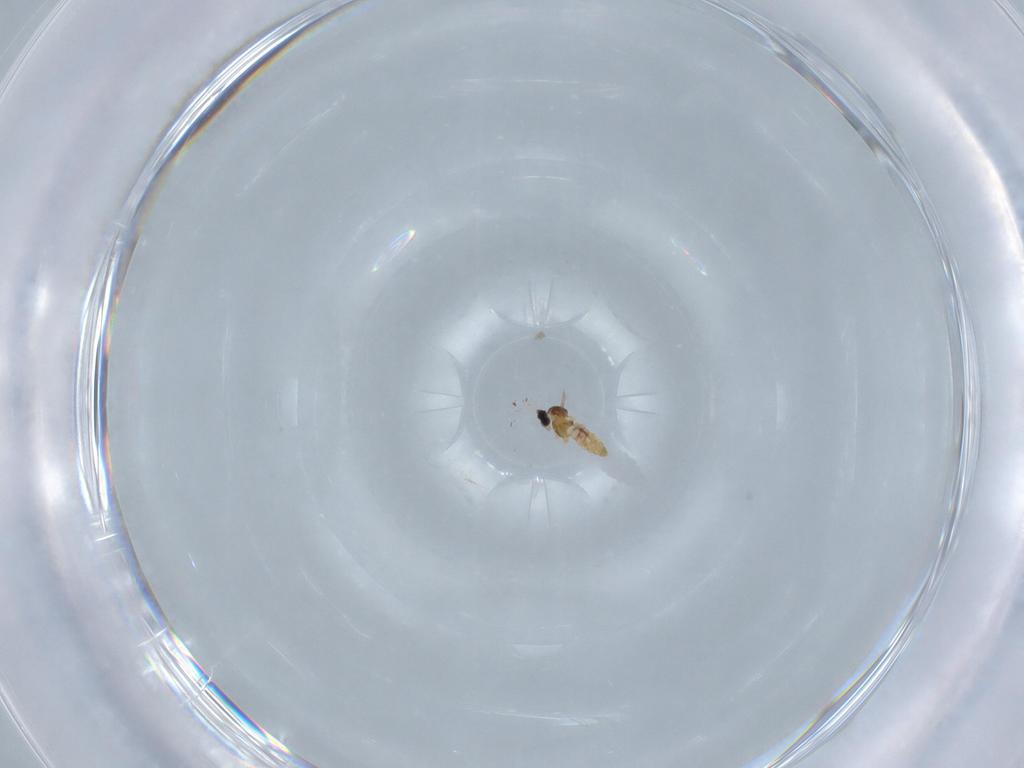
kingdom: Animalia
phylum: Arthropoda
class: Insecta
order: Diptera
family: Cecidomyiidae
